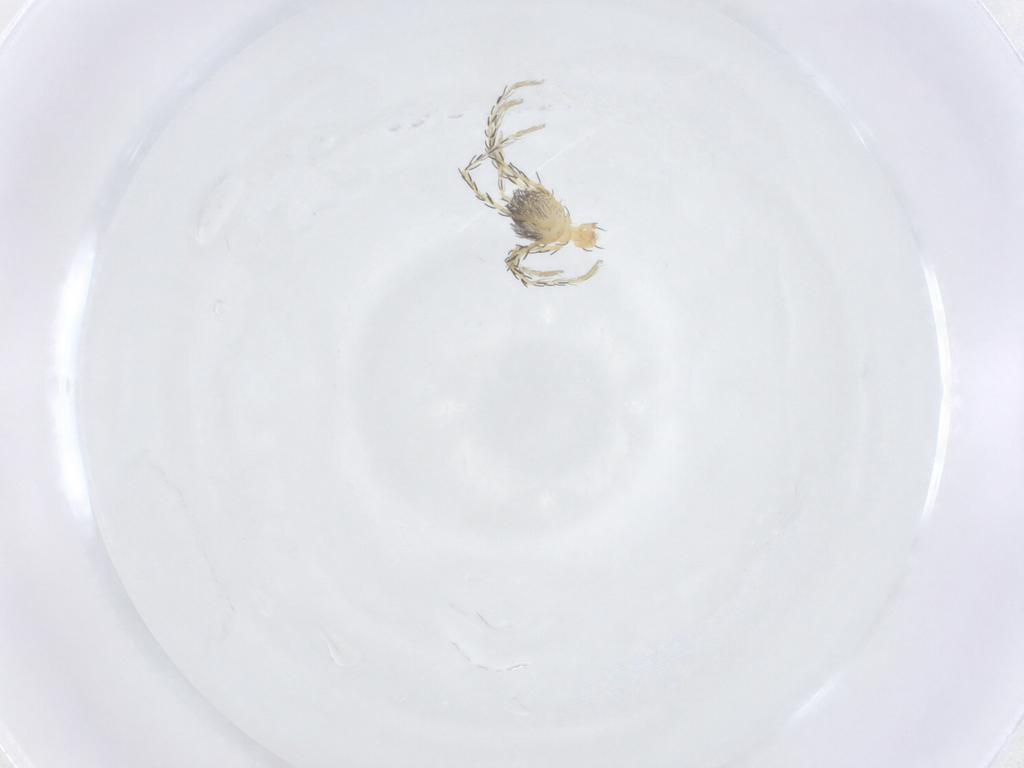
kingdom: Animalia
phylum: Arthropoda
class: Arachnida
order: Trombidiformes
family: Erythraeidae
